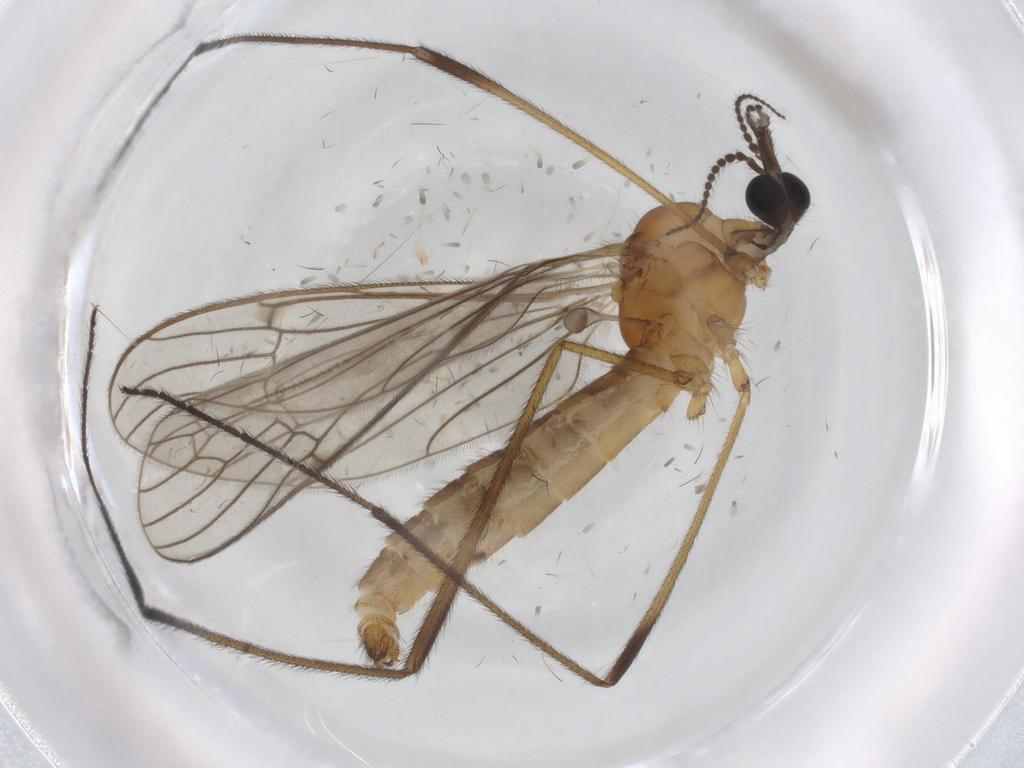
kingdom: Animalia
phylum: Arthropoda
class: Insecta
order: Diptera
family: Limoniidae
